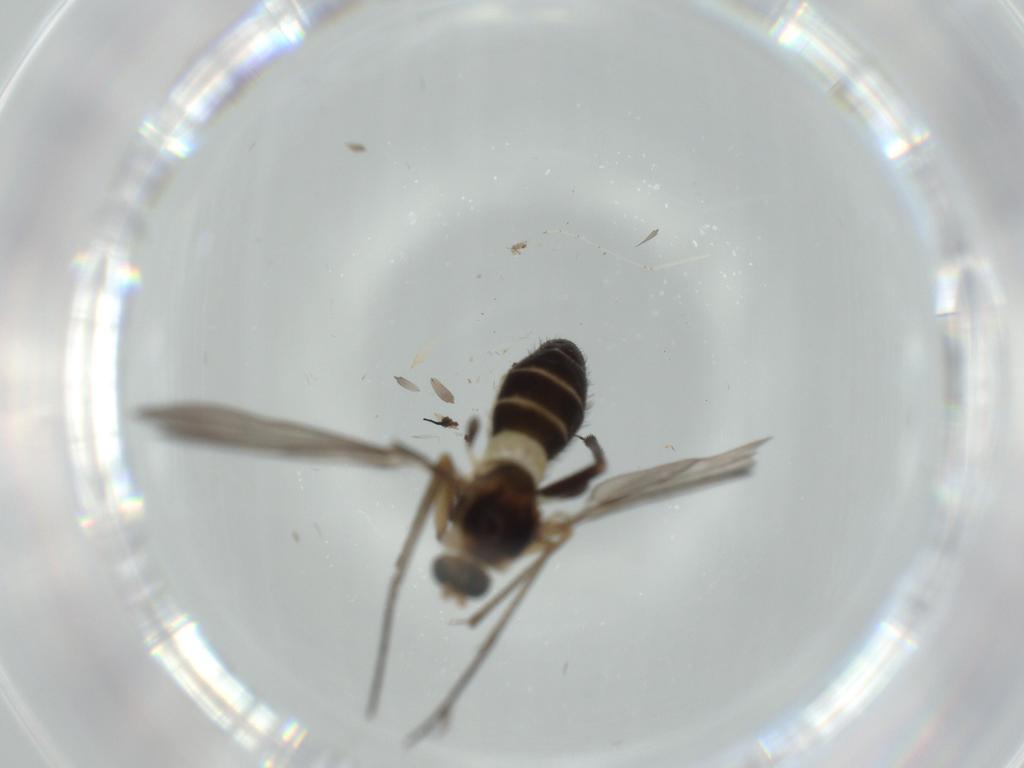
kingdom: Animalia
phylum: Arthropoda
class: Insecta
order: Diptera
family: Sciaridae
